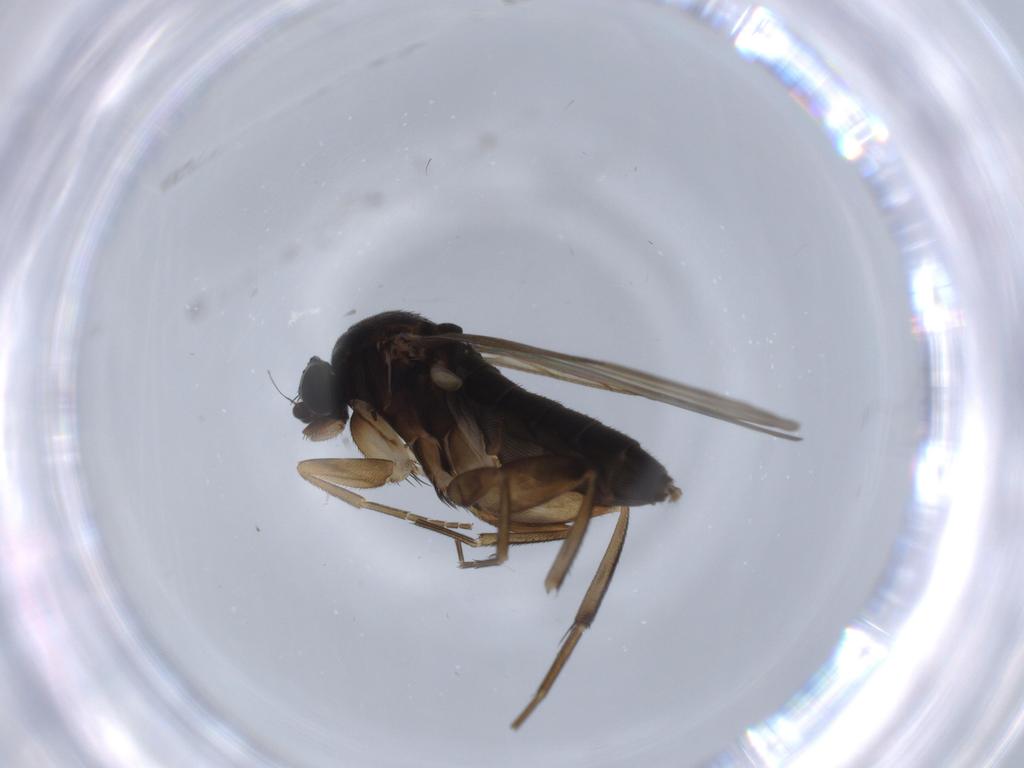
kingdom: Animalia
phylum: Arthropoda
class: Insecta
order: Diptera
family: Phoridae
